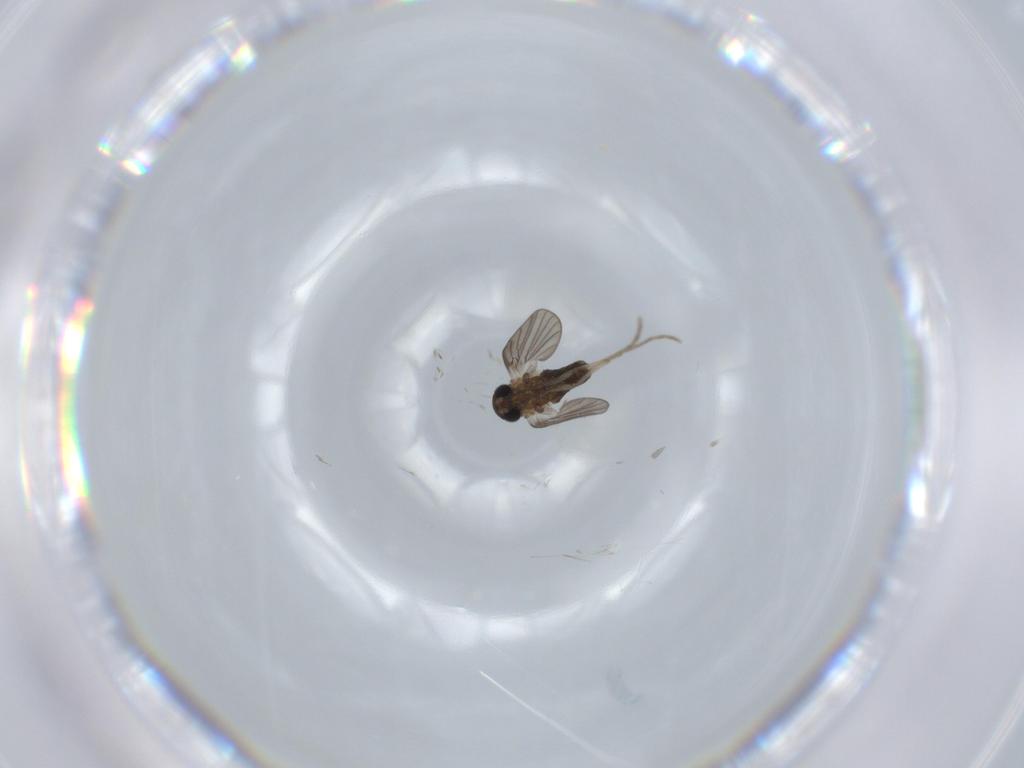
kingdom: Animalia
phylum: Arthropoda
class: Insecta
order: Diptera
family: Psychodidae
